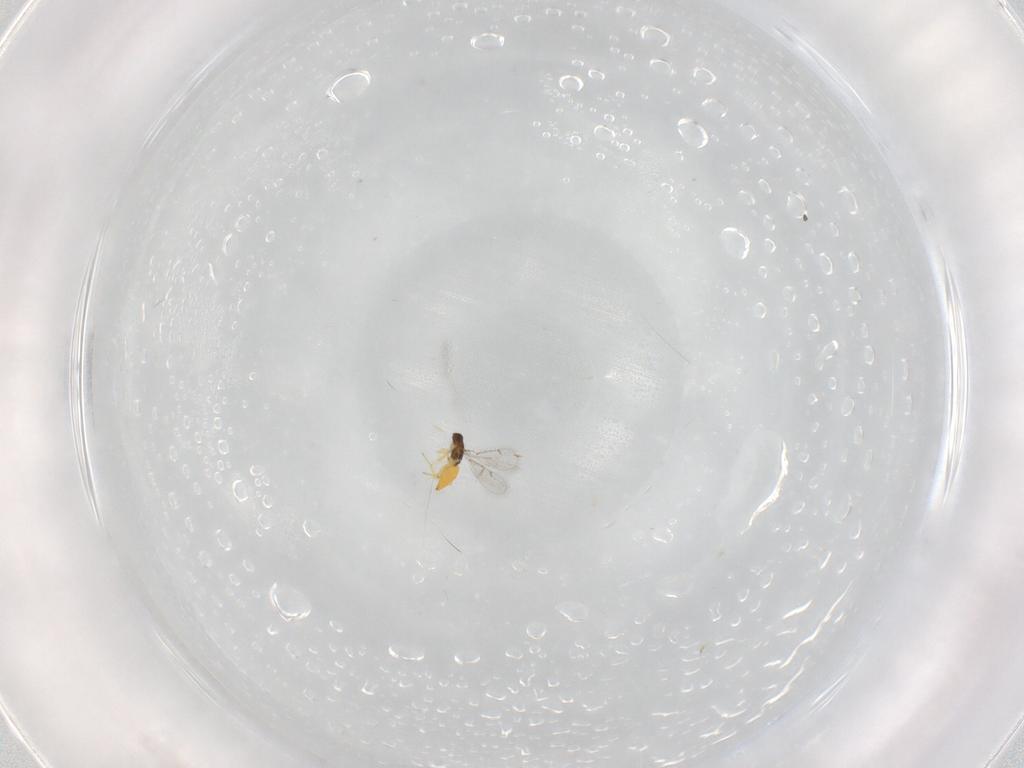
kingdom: Animalia
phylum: Arthropoda
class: Insecta
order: Hymenoptera
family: Eulophidae
